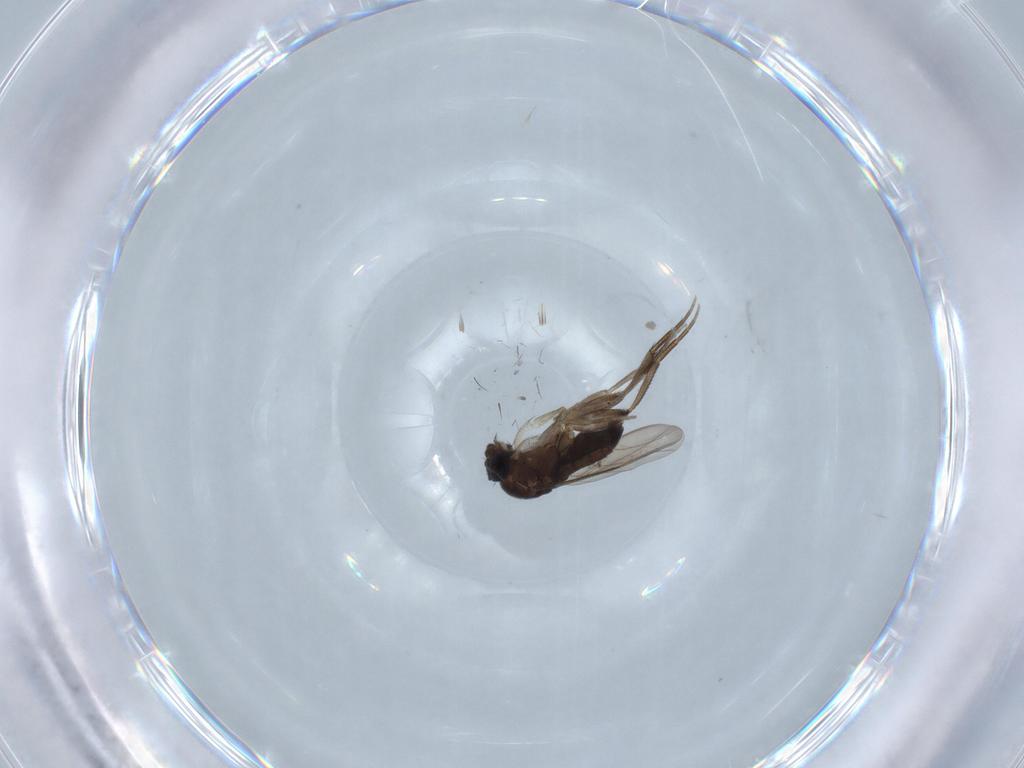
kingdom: Animalia
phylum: Arthropoda
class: Insecta
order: Diptera
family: Phoridae
